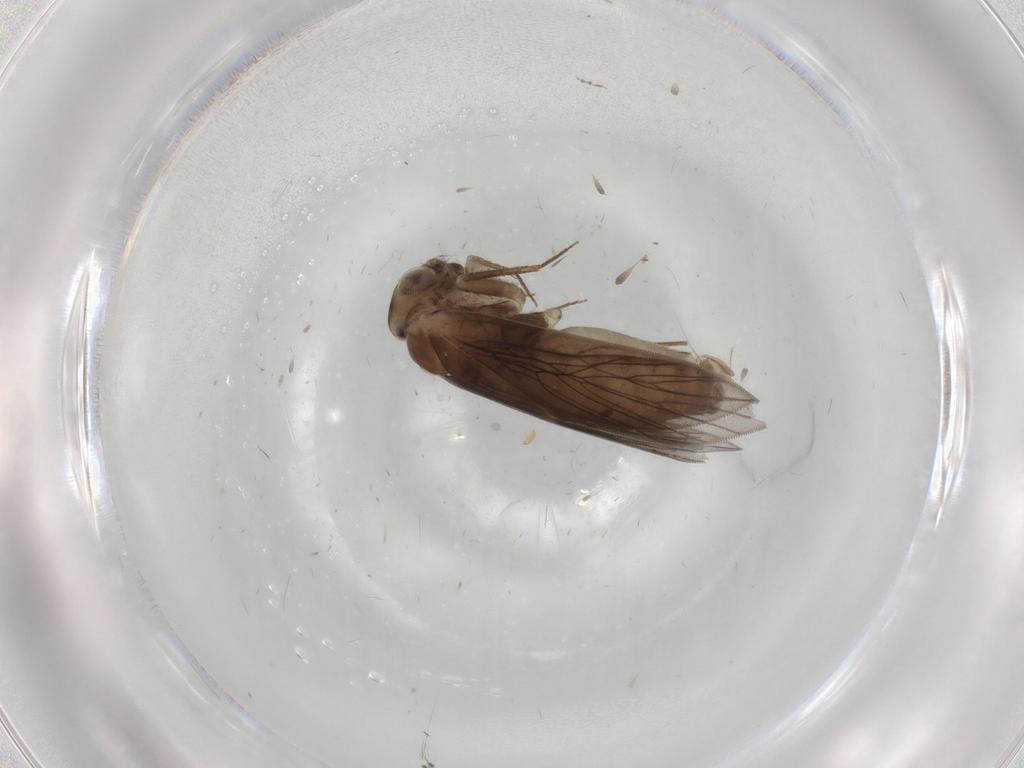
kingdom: Animalia
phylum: Arthropoda
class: Insecta
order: Psocodea
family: Lepidopsocidae
